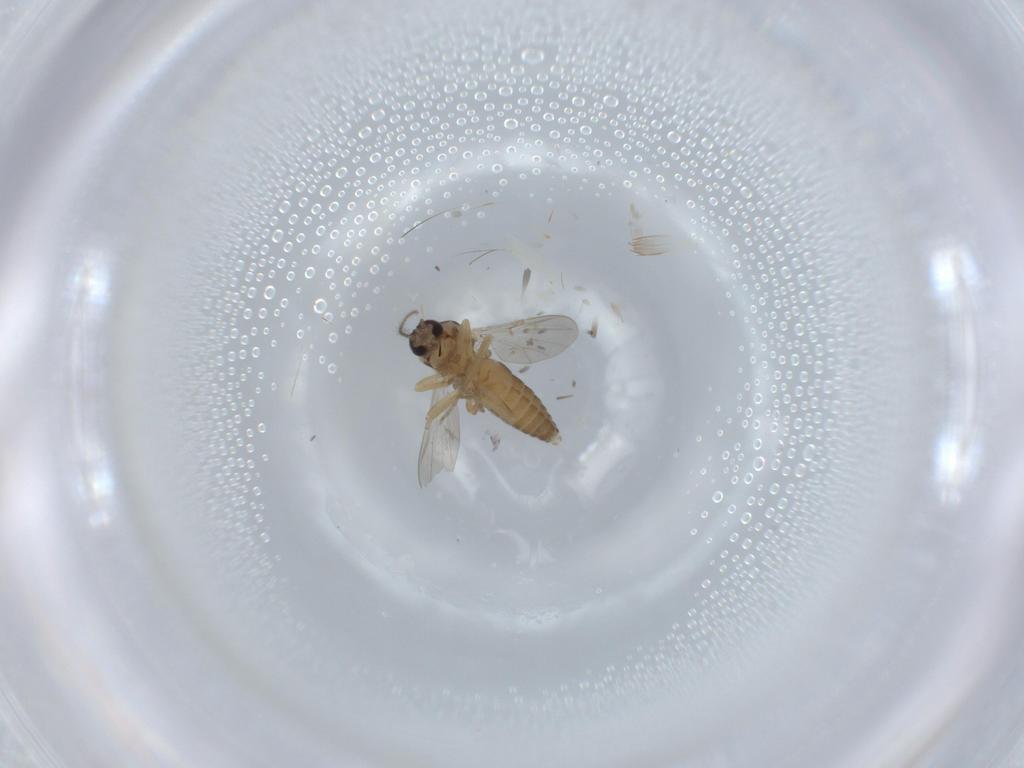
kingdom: Animalia
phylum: Arthropoda
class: Insecta
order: Diptera
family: Ceratopogonidae
